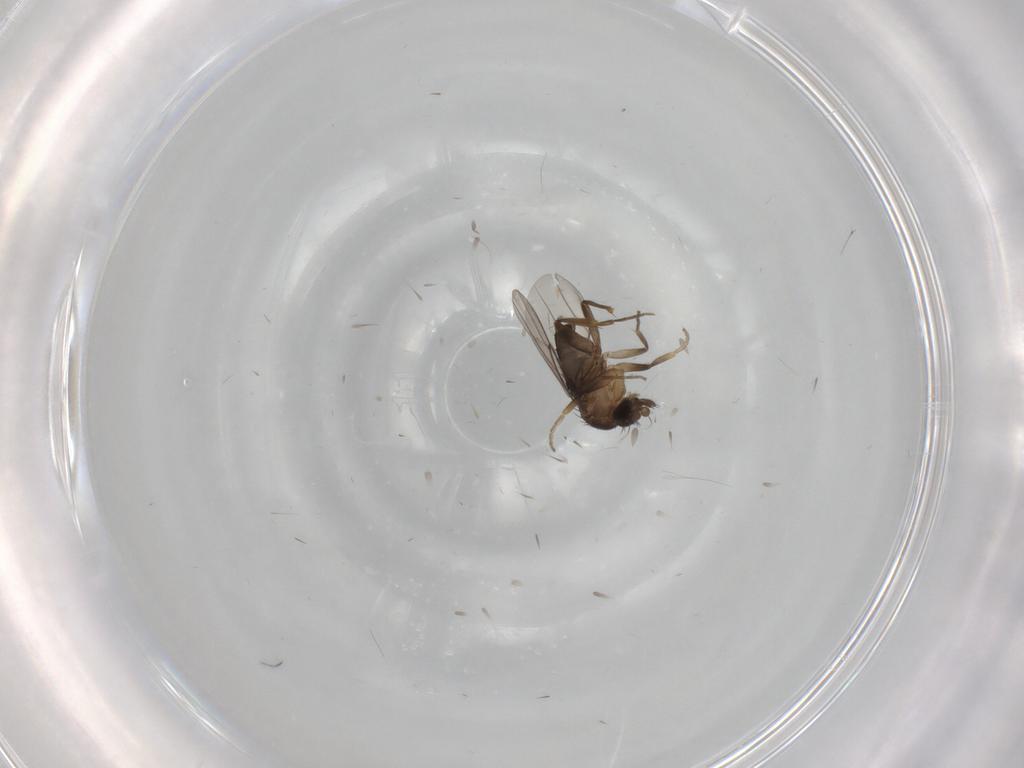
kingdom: Animalia
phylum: Arthropoda
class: Insecta
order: Diptera
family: Phoridae
